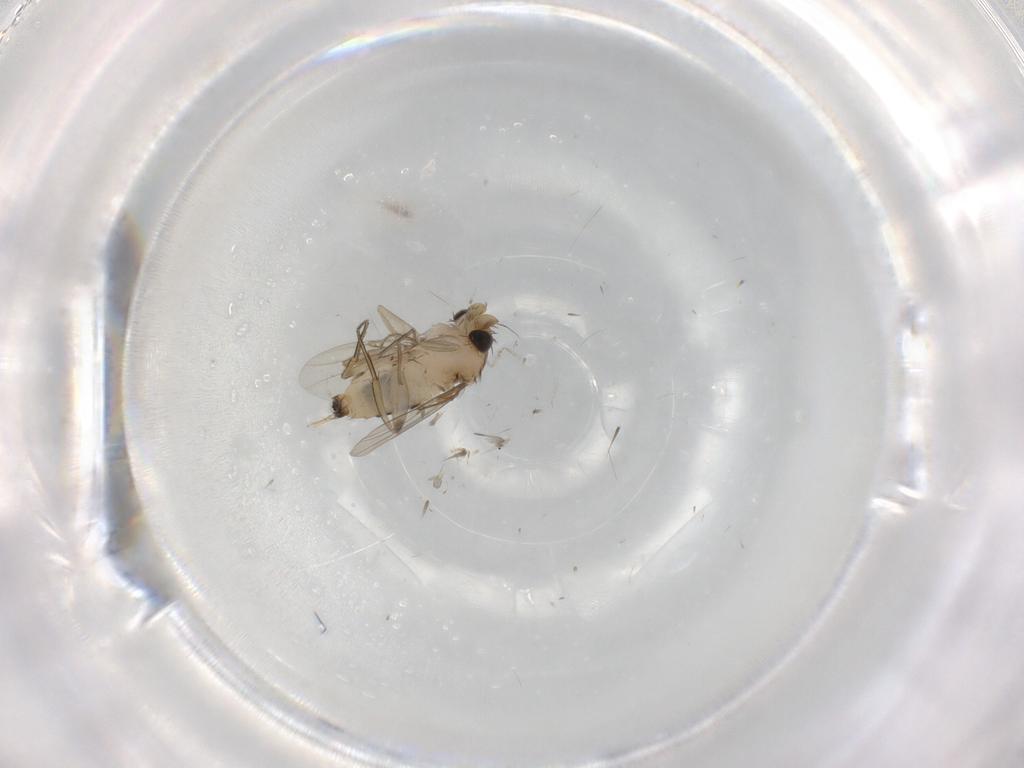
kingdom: Animalia
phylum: Arthropoda
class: Insecta
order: Diptera
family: Phoridae
